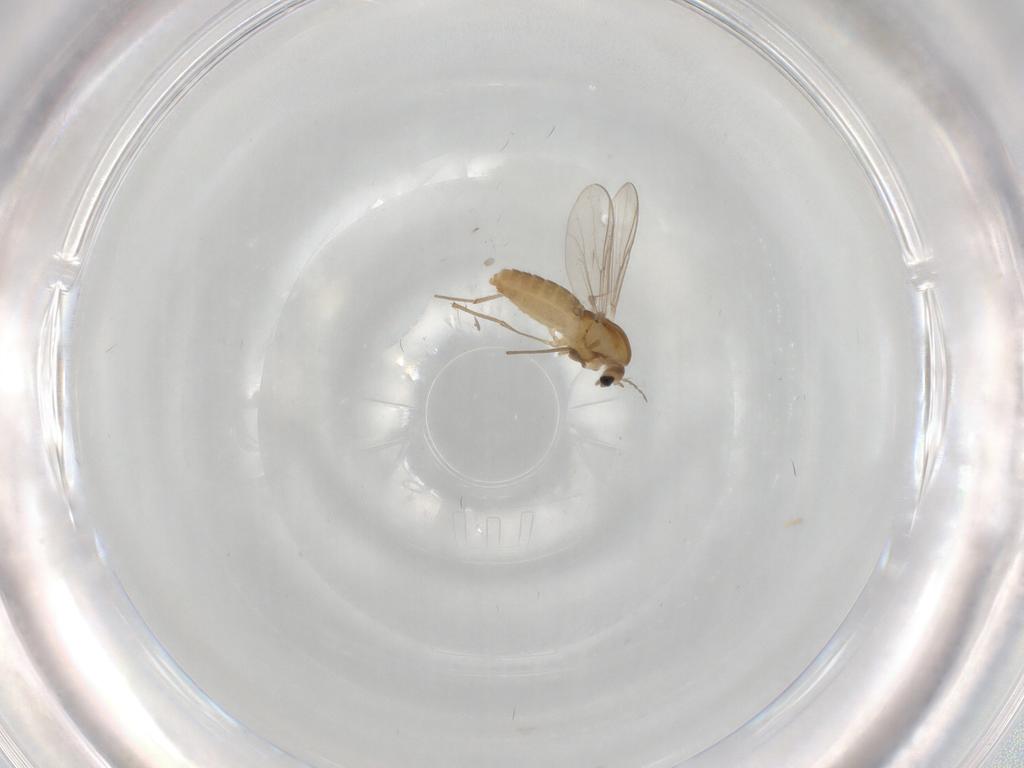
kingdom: Animalia
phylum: Arthropoda
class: Insecta
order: Diptera
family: Chironomidae
